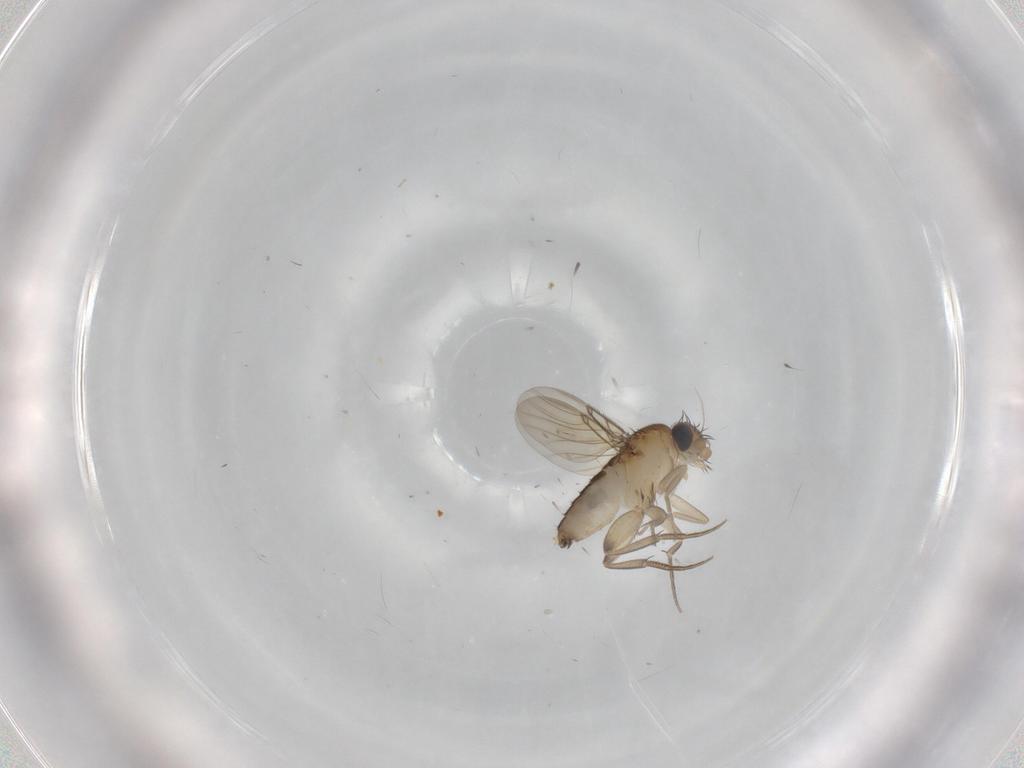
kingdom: Animalia
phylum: Arthropoda
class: Insecta
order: Diptera
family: Phoridae
